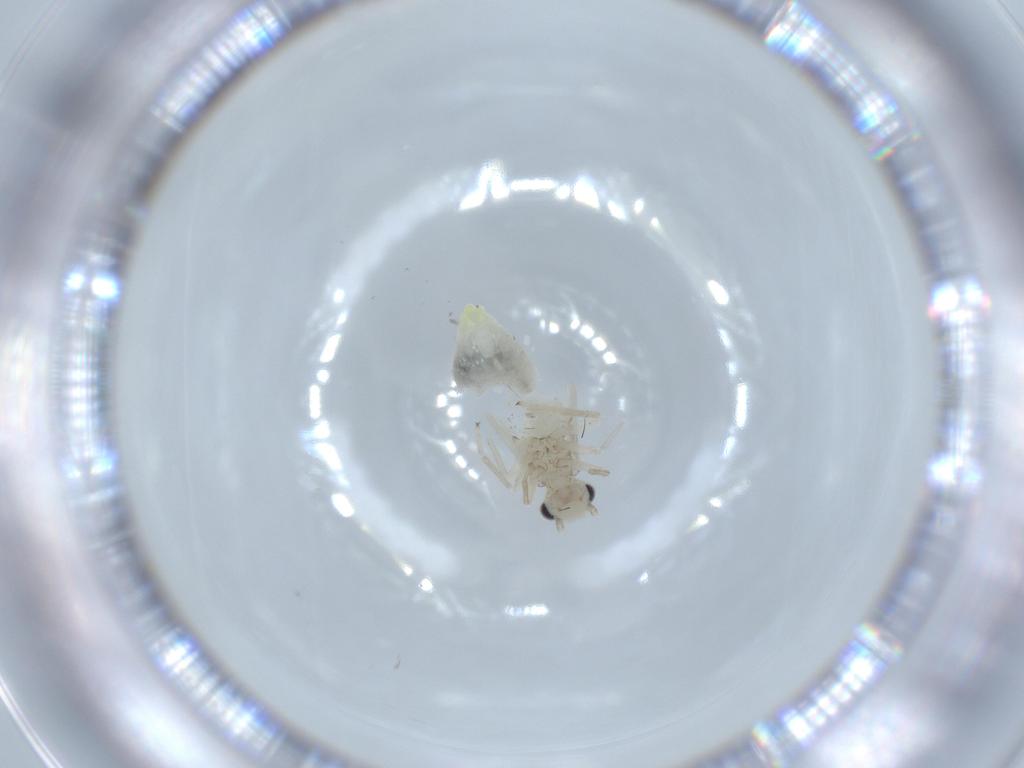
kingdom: Animalia
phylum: Arthropoda
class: Insecta
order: Psocodea
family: Caeciliusidae
